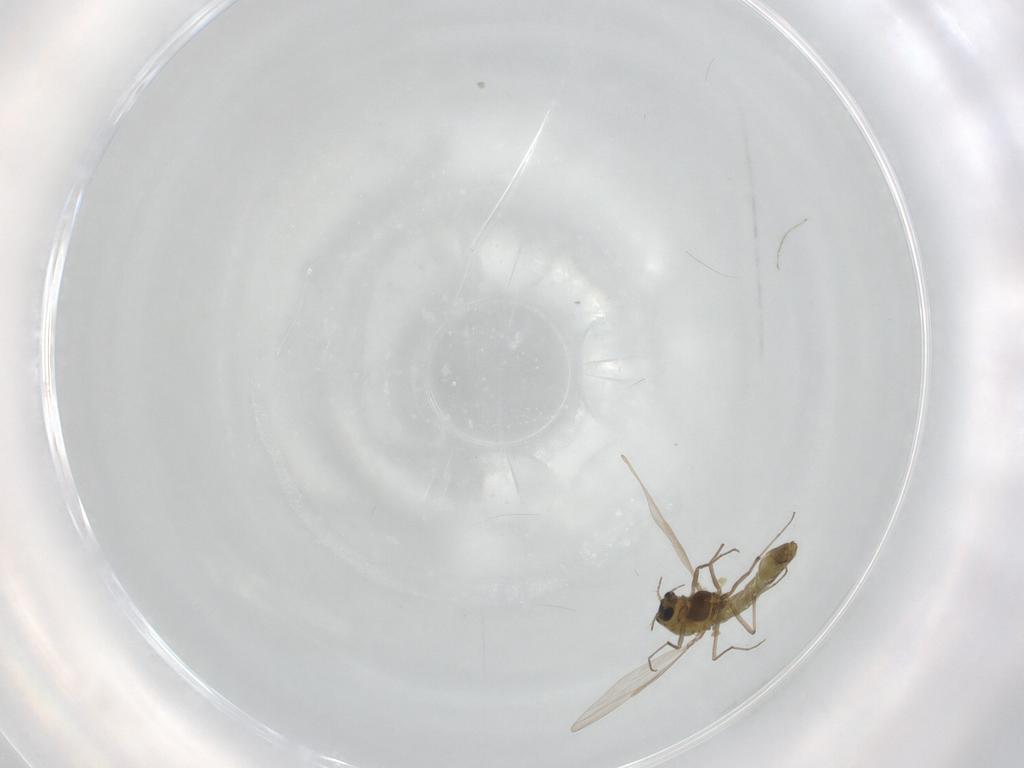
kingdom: Animalia
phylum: Arthropoda
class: Insecta
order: Diptera
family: Chironomidae
